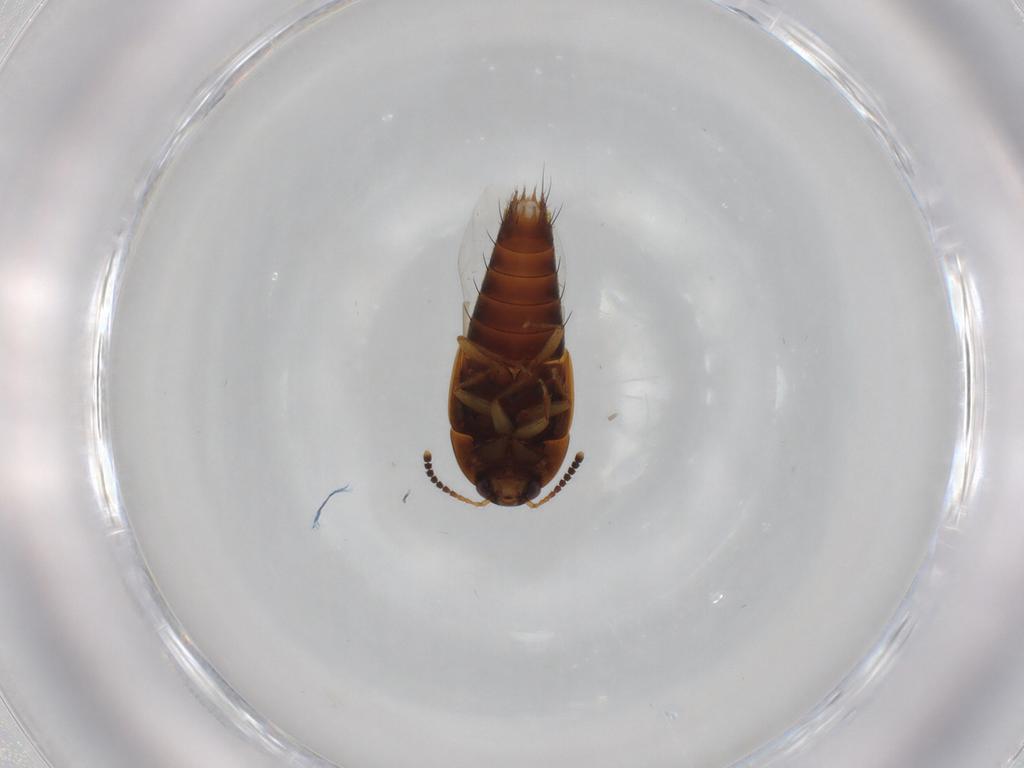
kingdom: Animalia
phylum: Arthropoda
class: Insecta
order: Coleoptera
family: Staphylinidae
